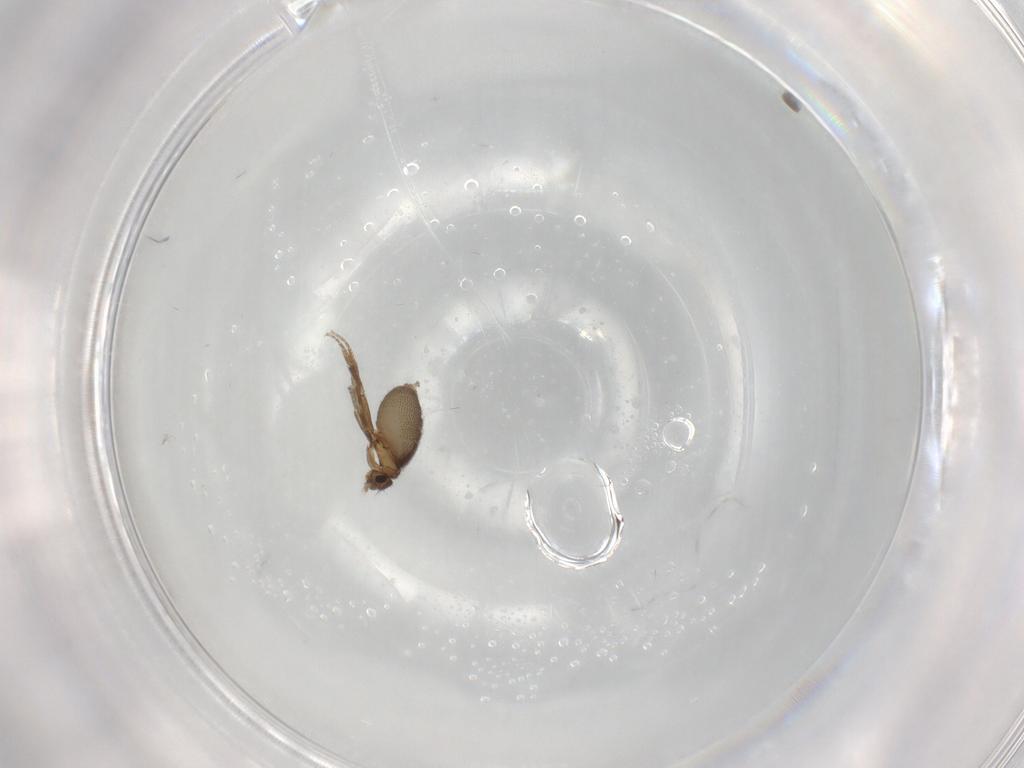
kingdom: Animalia
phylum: Arthropoda
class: Insecta
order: Diptera
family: Phoridae
